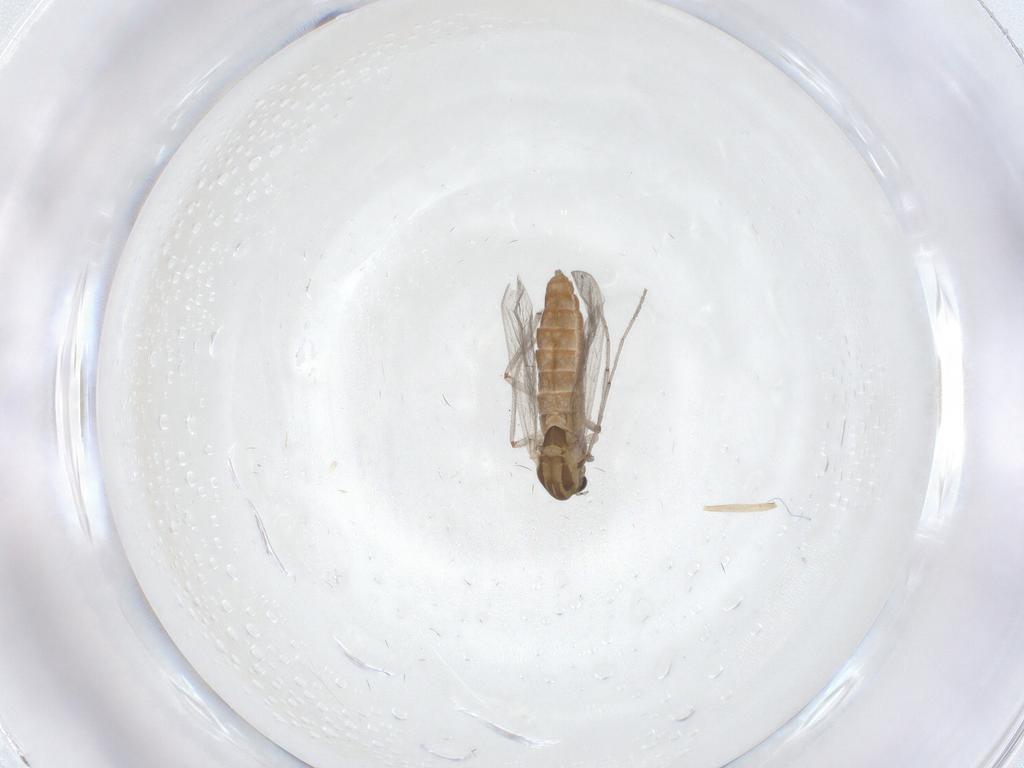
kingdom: Animalia
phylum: Arthropoda
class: Insecta
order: Diptera
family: Chironomidae
